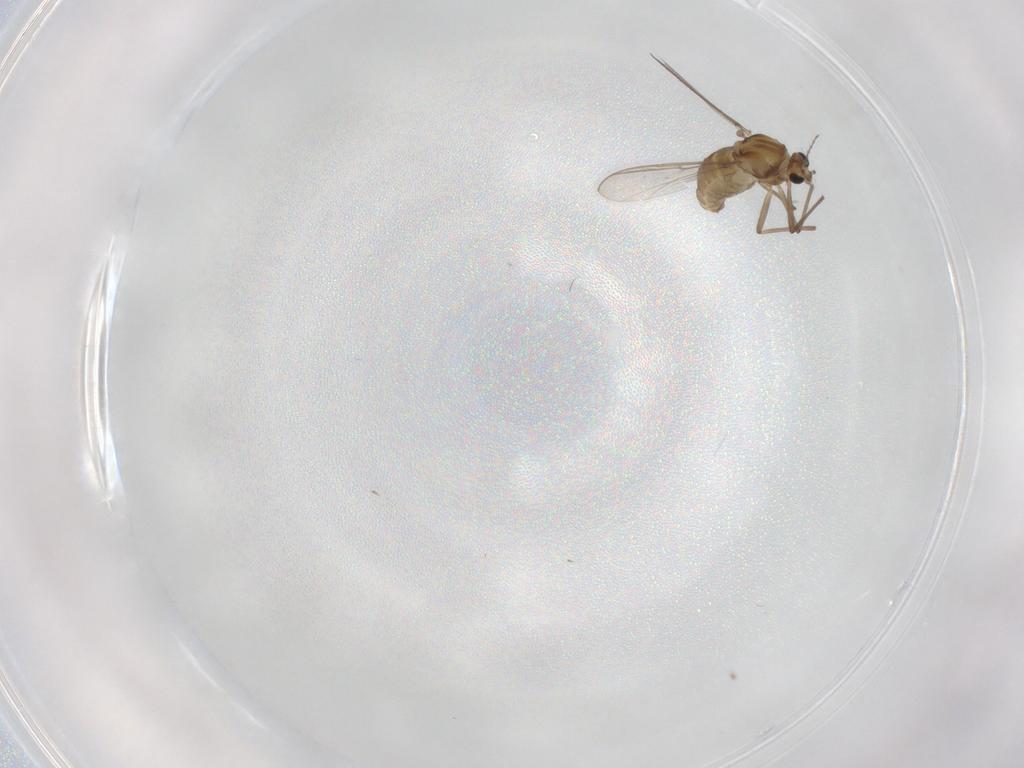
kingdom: Animalia
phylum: Arthropoda
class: Insecta
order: Diptera
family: Chironomidae
